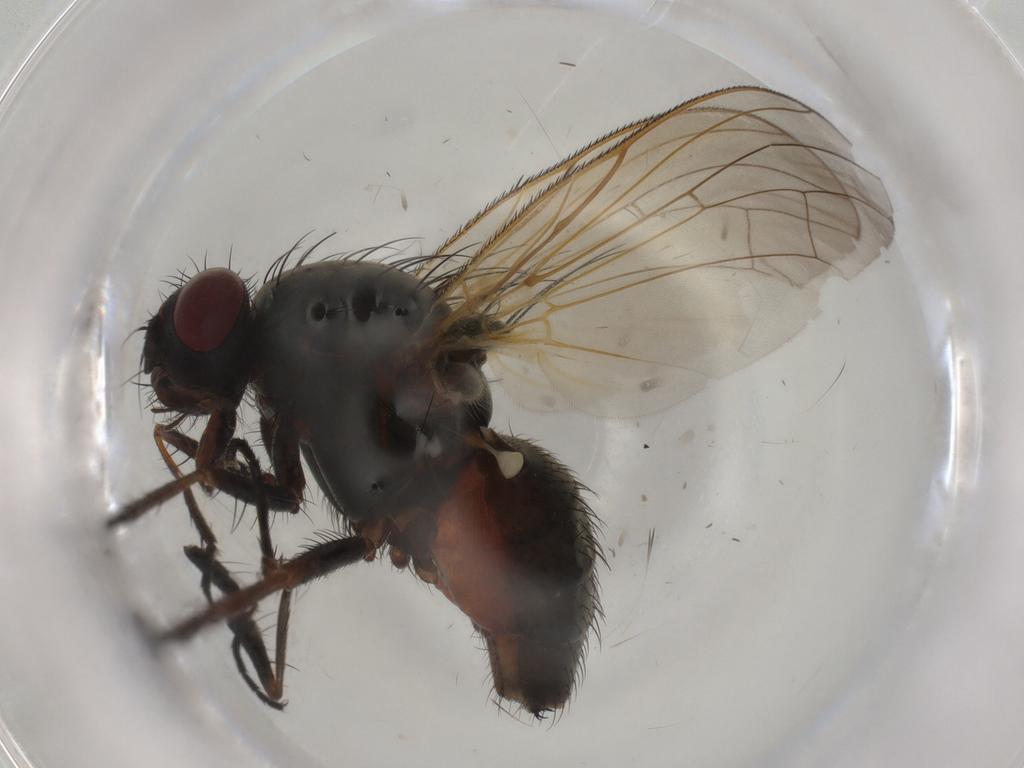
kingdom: Animalia
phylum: Arthropoda
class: Insecta
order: Diptera
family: Anthomyiidae
